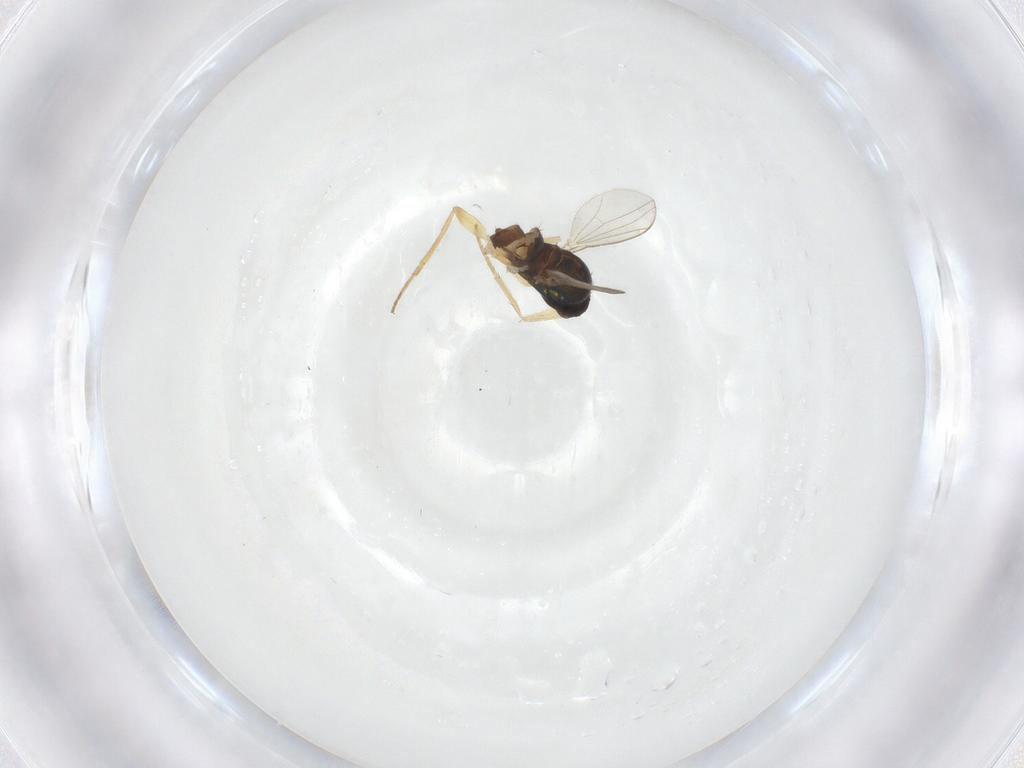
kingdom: Animalia
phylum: Arthropoda
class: Insecta
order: Diptera
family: Dolichopodidae
